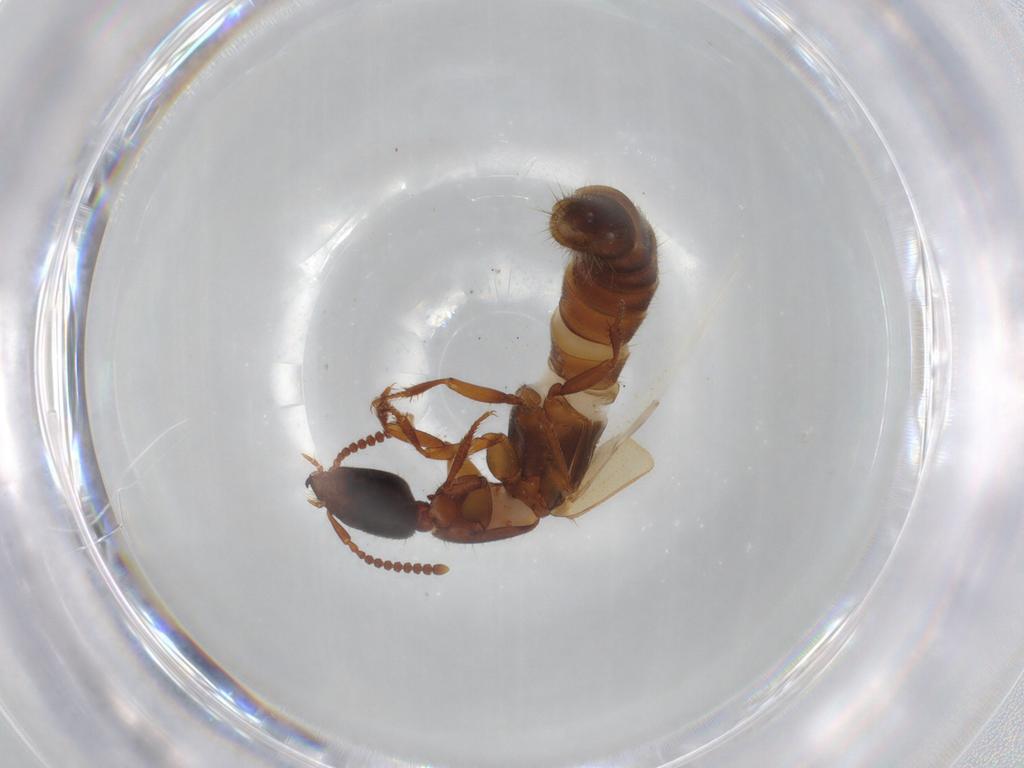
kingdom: Animalia
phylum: Arthropoda
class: Insecta
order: Coleoptera
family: Staphylinidae
